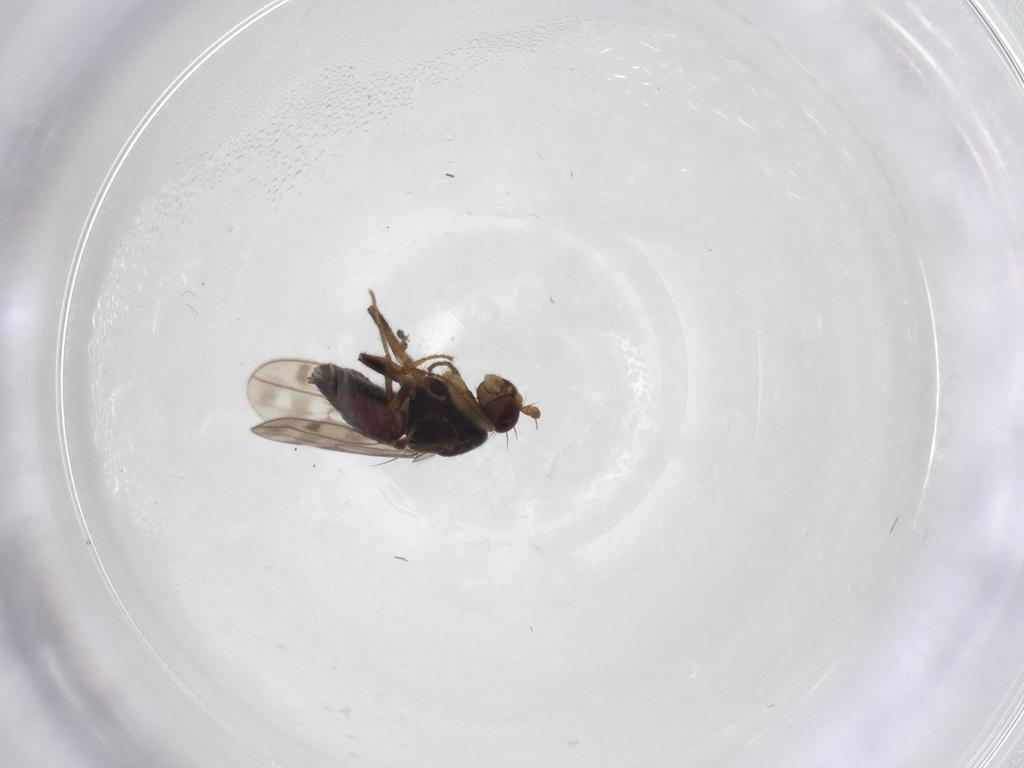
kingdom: Animalia
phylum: Arthropoda
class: Insecta
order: Diptera
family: Sphaeroceridae
